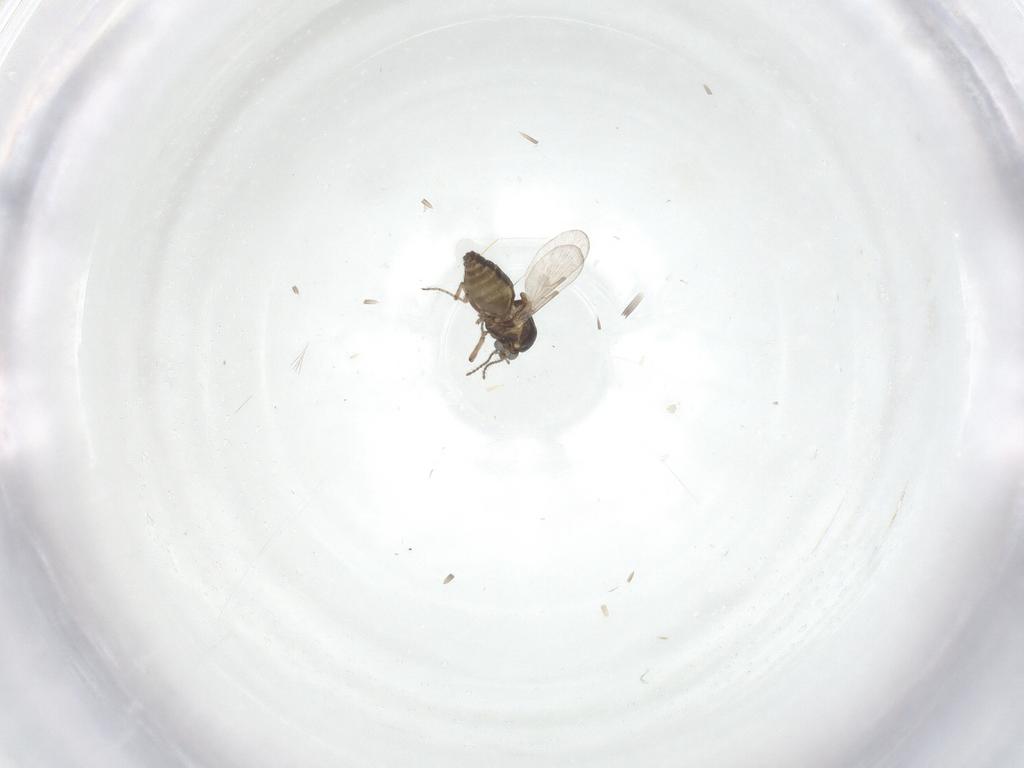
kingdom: Animalia
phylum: Arthropoda
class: Insecta
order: Diptera
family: Ceratopogonidae
